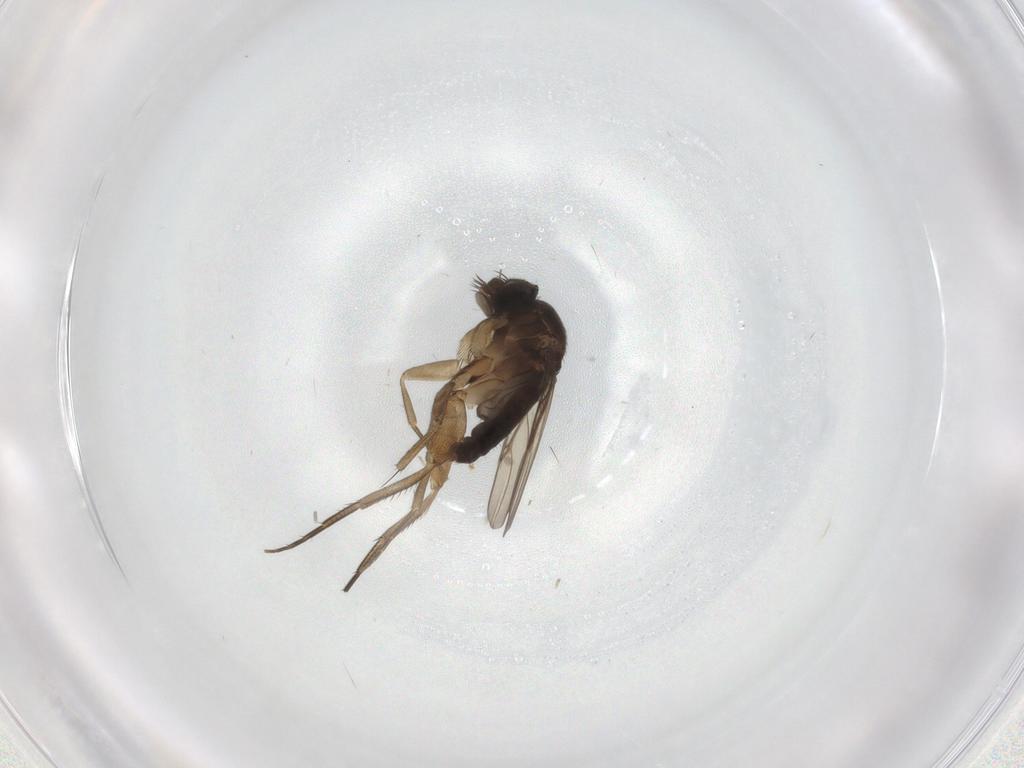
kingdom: Animalia
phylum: Arthropoda
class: Insecta
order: Diptera
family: Phoridae
